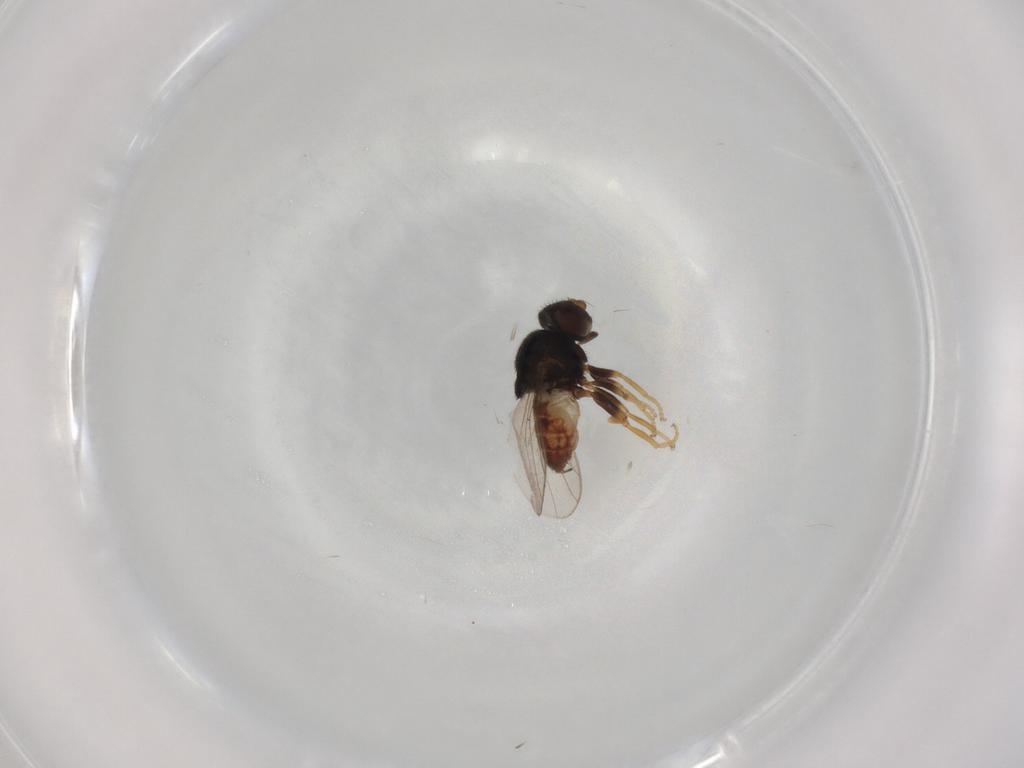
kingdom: Animalia
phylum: Arthropoda
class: Insecta
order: Diptera
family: Chloropidae
